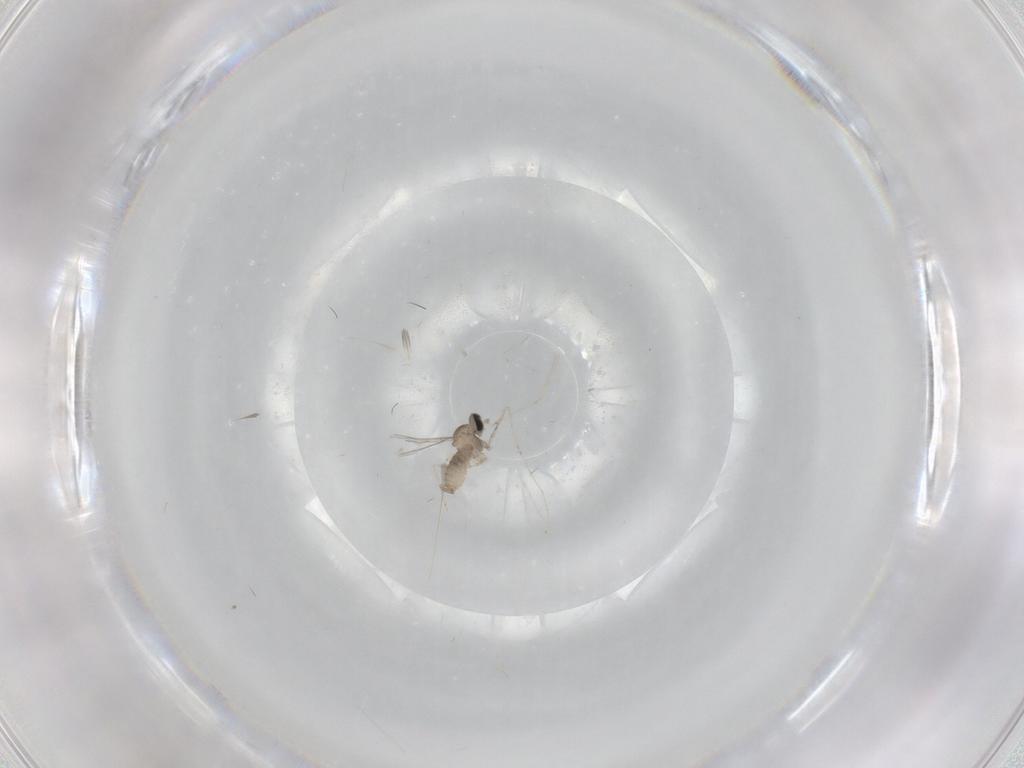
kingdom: Animalia
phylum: Arthropoda
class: Insecta
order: Diptera
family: Cecidomyiidae
